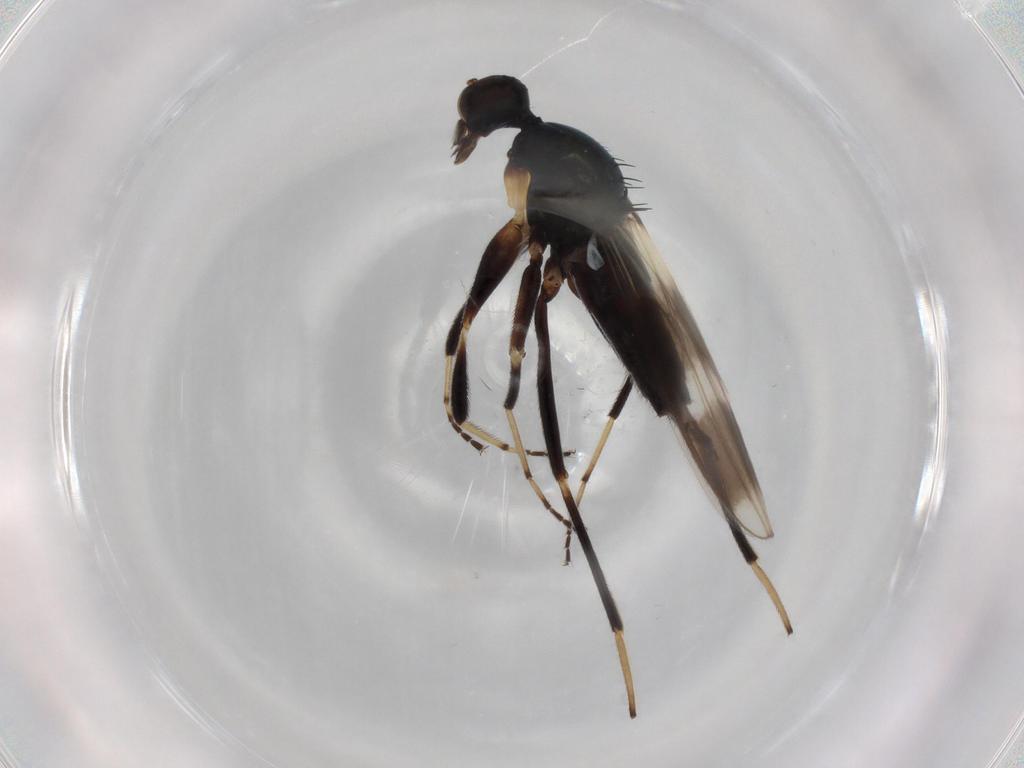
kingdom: Animalia
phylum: Arthropoda
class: Insecta
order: Diptera
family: Hybotidae
